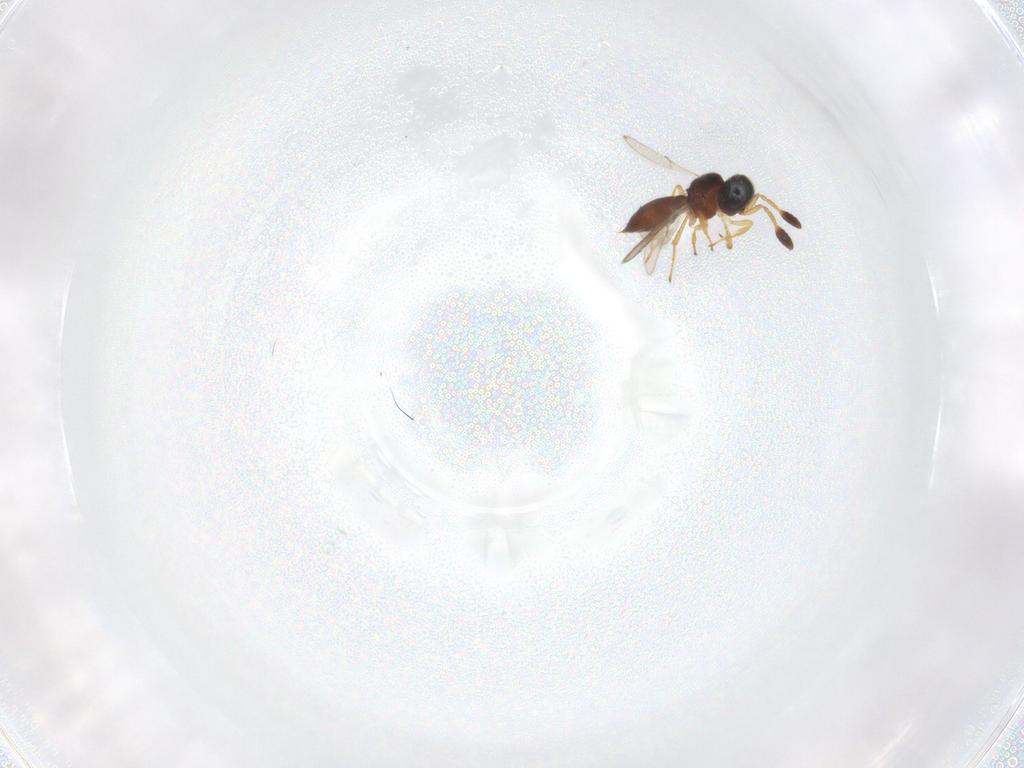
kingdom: Animalia
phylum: Arthropoda
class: Insecta
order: Hymenoptera
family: Scelionidae
